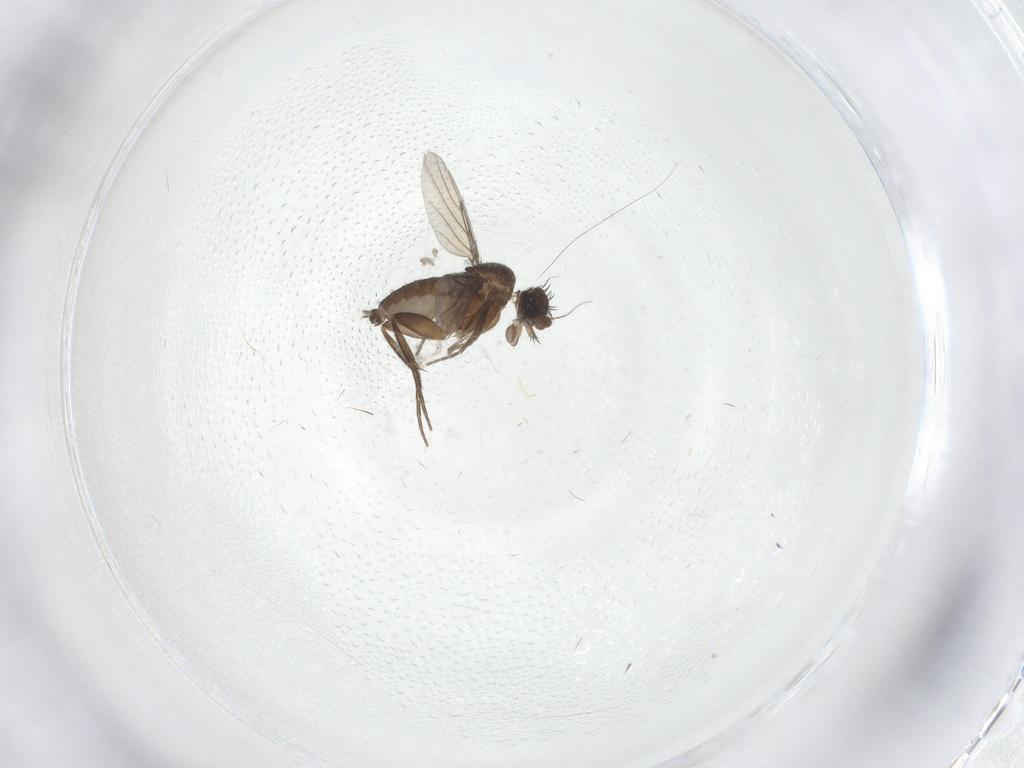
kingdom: Animalia
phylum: Arthropoda
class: Insecta
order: Diptera
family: Phoridae
